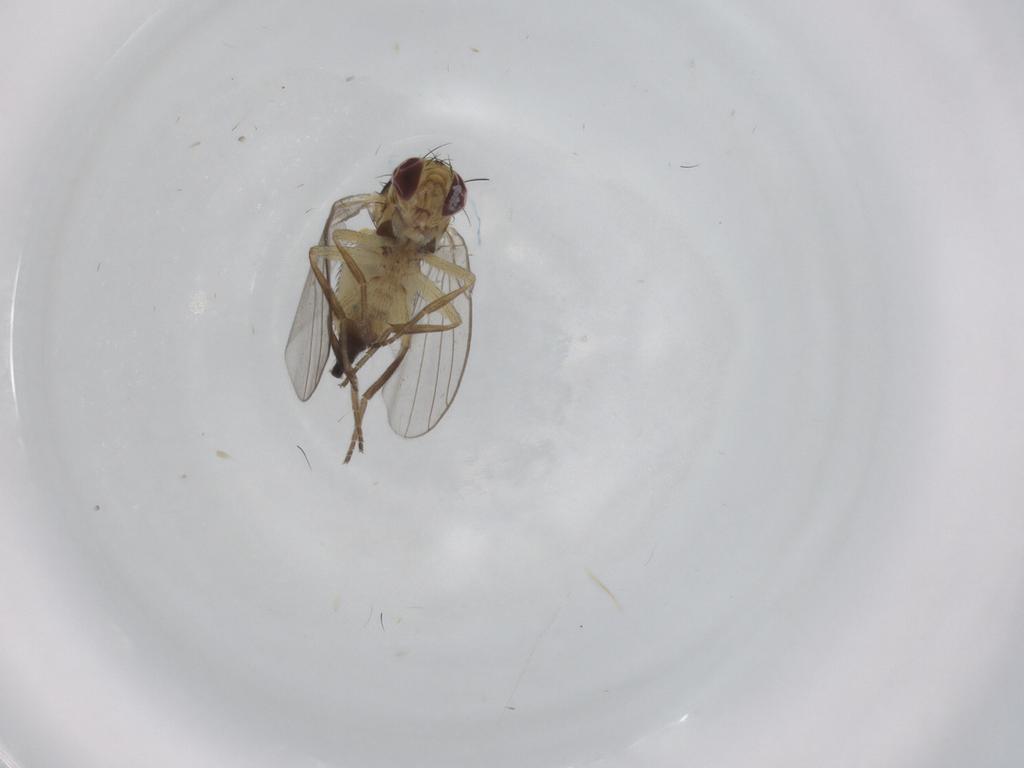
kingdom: Animalia
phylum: Arthropoda
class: Insecta
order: Diptera
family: Agromyzidae
